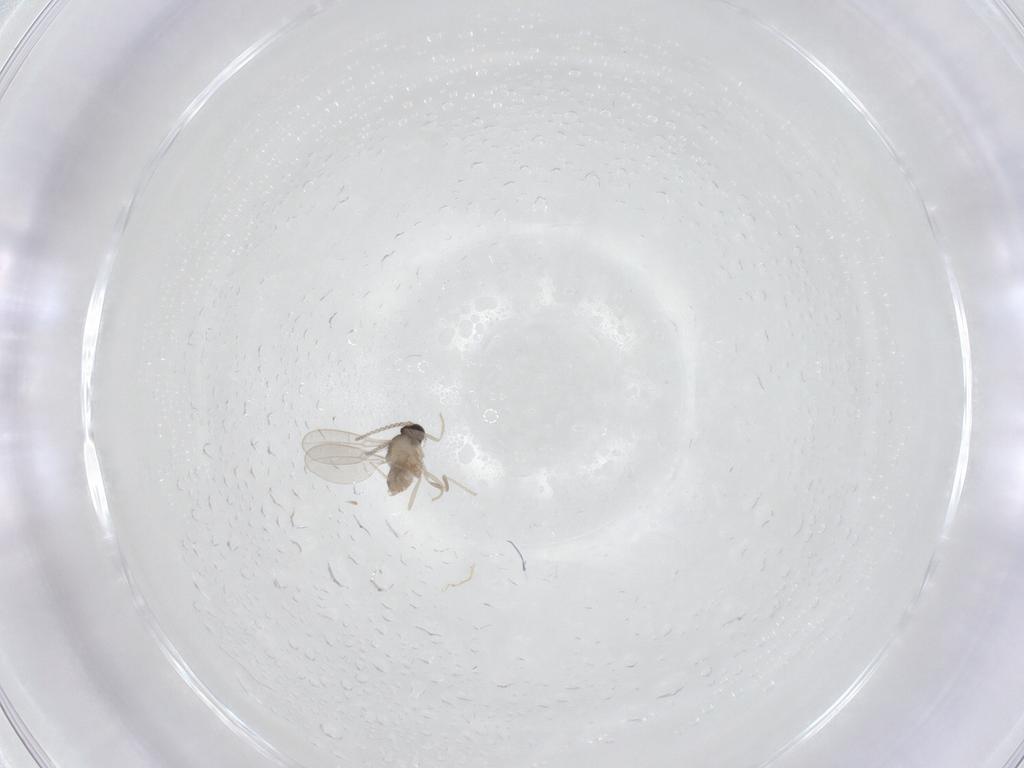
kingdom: Animalia
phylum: Arthropoda
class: Insecta
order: Diptera
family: Cecidomyiidae
